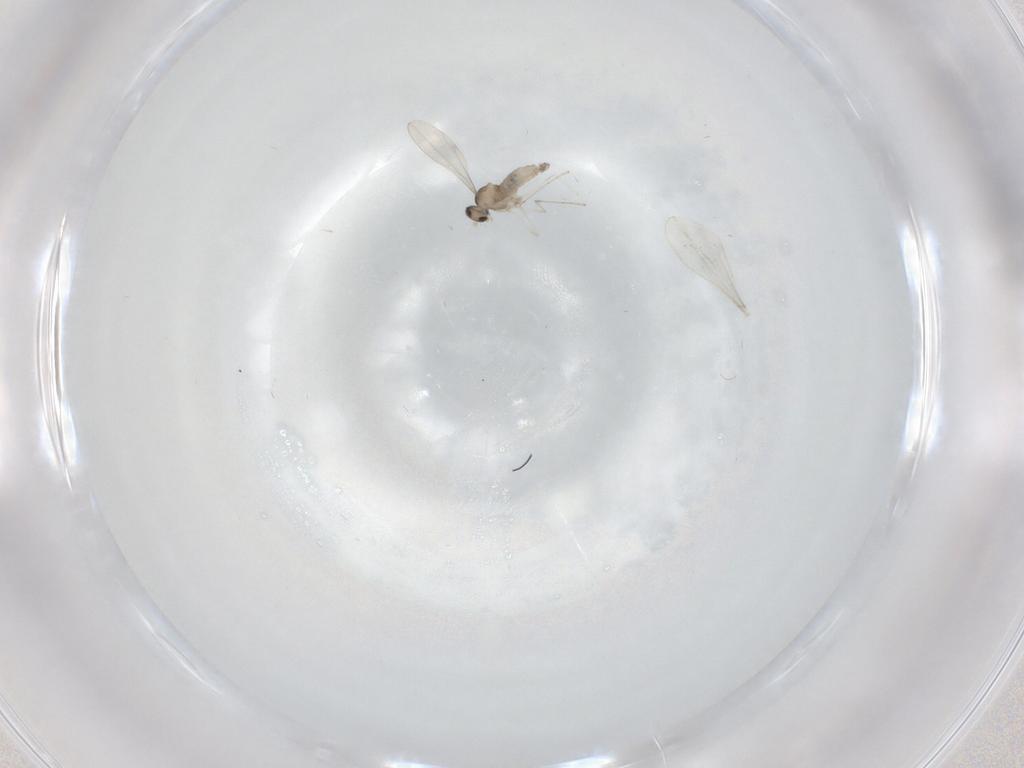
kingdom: Animalia
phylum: Arthropoda
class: Insecta
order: Diptera
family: Cecidomyiidae
